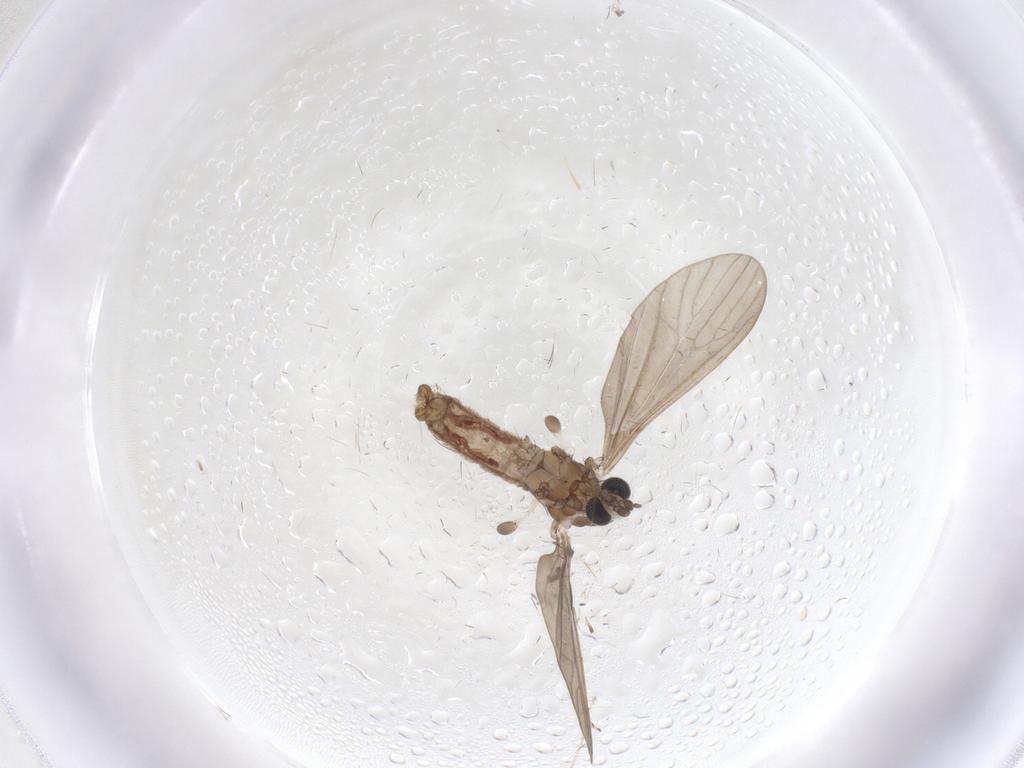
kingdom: Animalia
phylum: Arthropoda
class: Insecta
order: Diptera
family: Limoniidae
